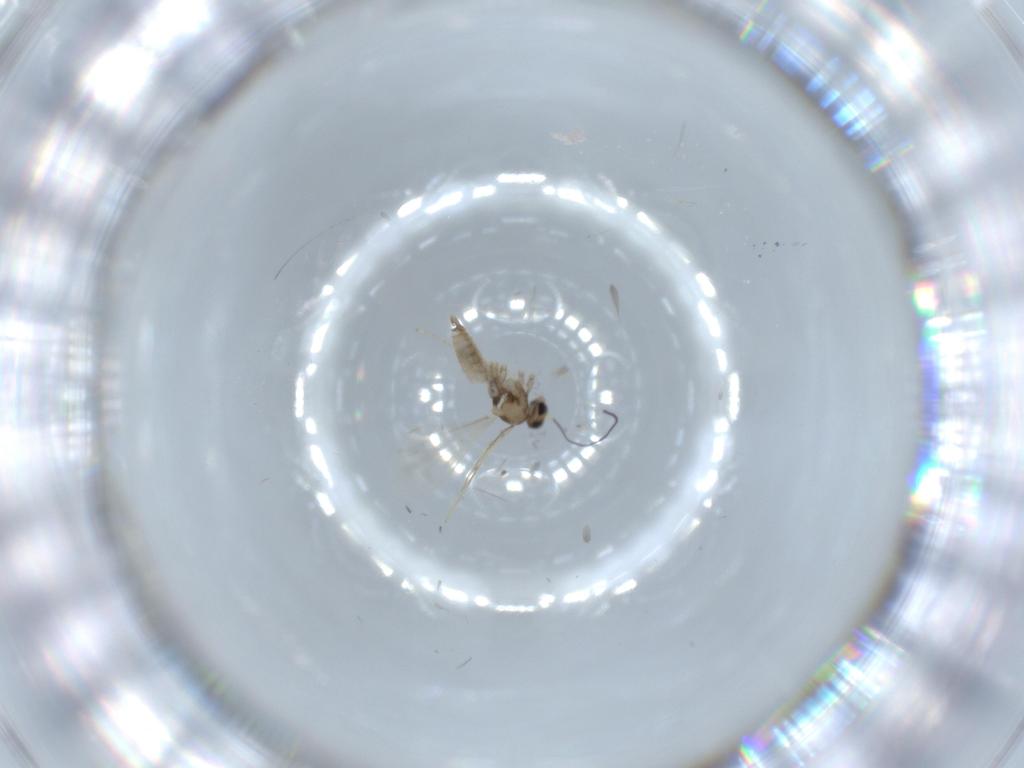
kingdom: Animalia
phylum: Arthropoda
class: Insecta
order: Diptera
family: Cecidomyiidae
